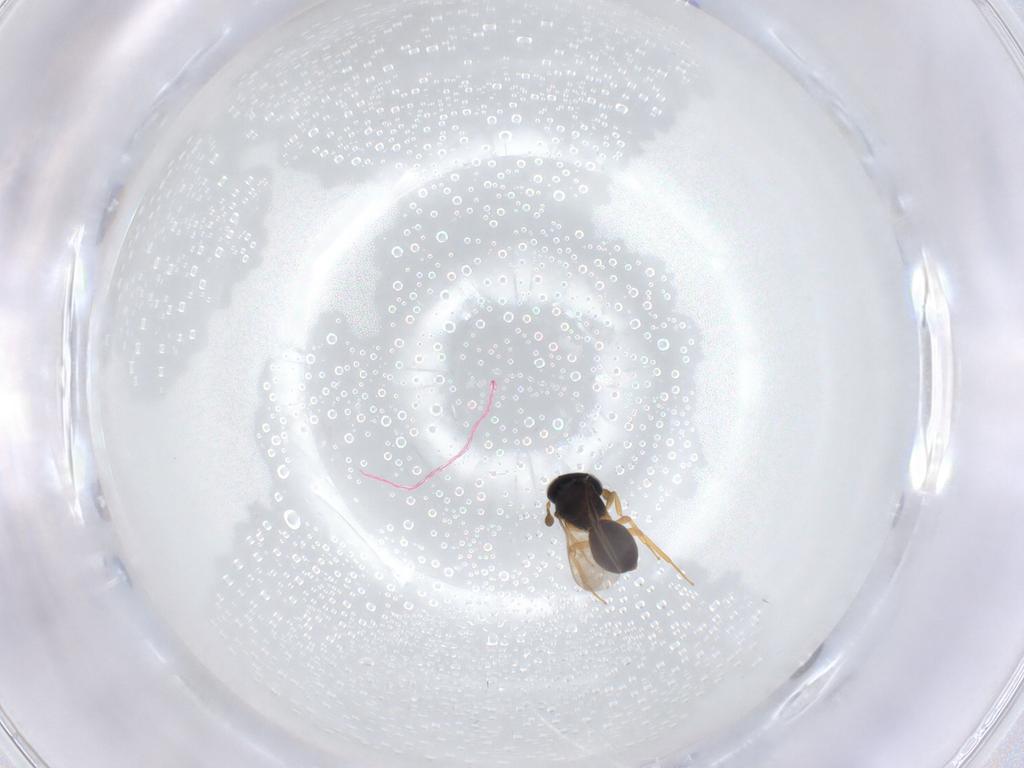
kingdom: Animalia
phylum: Arthropoda
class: Insecta
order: Hymenoptera
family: Scelionidae
